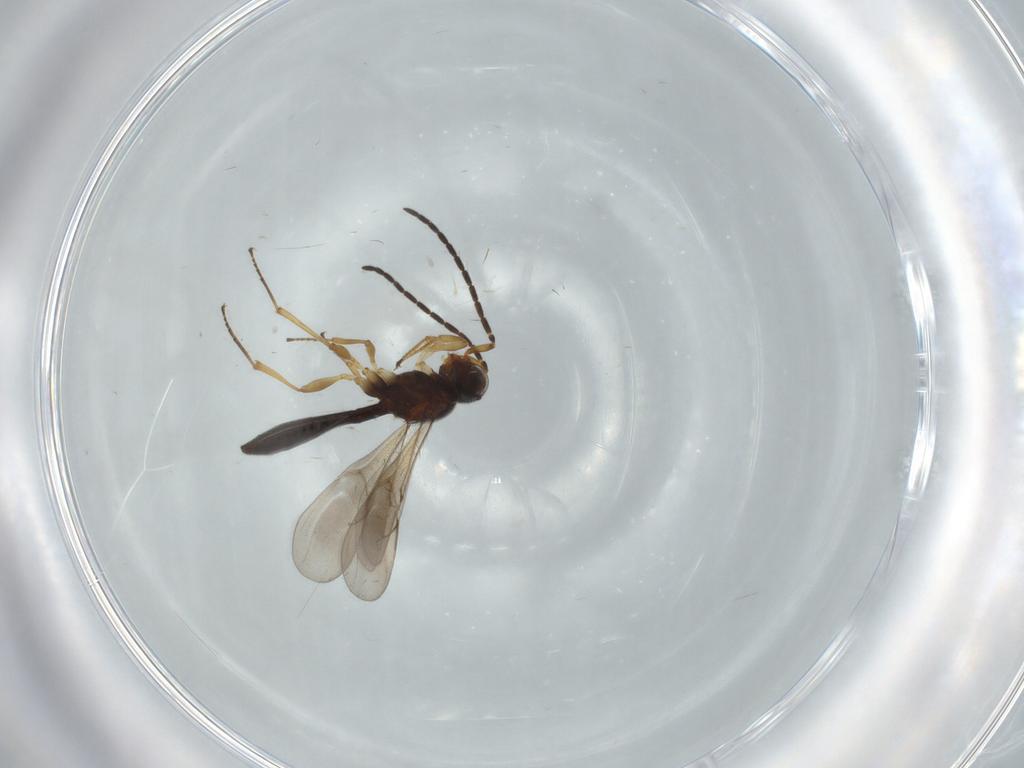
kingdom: Animalia
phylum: Arthropoda
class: Insecta
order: Hymenoptera
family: Scelionidae
